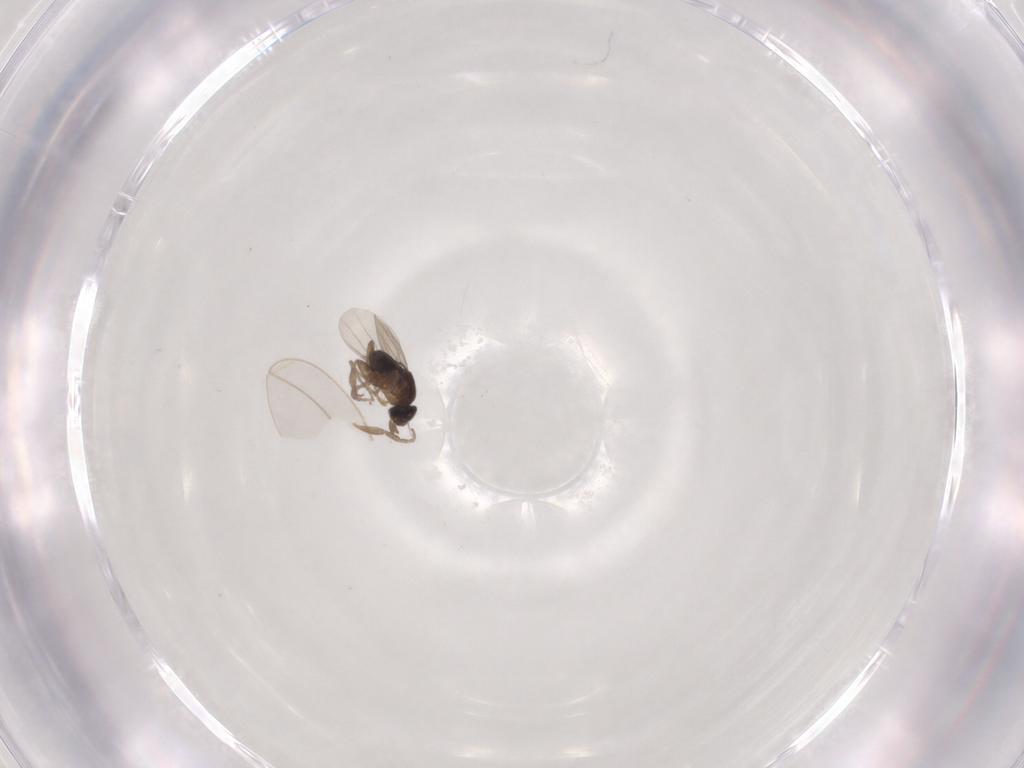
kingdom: Animalia
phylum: Arthropoda
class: Insecta
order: Diptera
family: Phoridae
